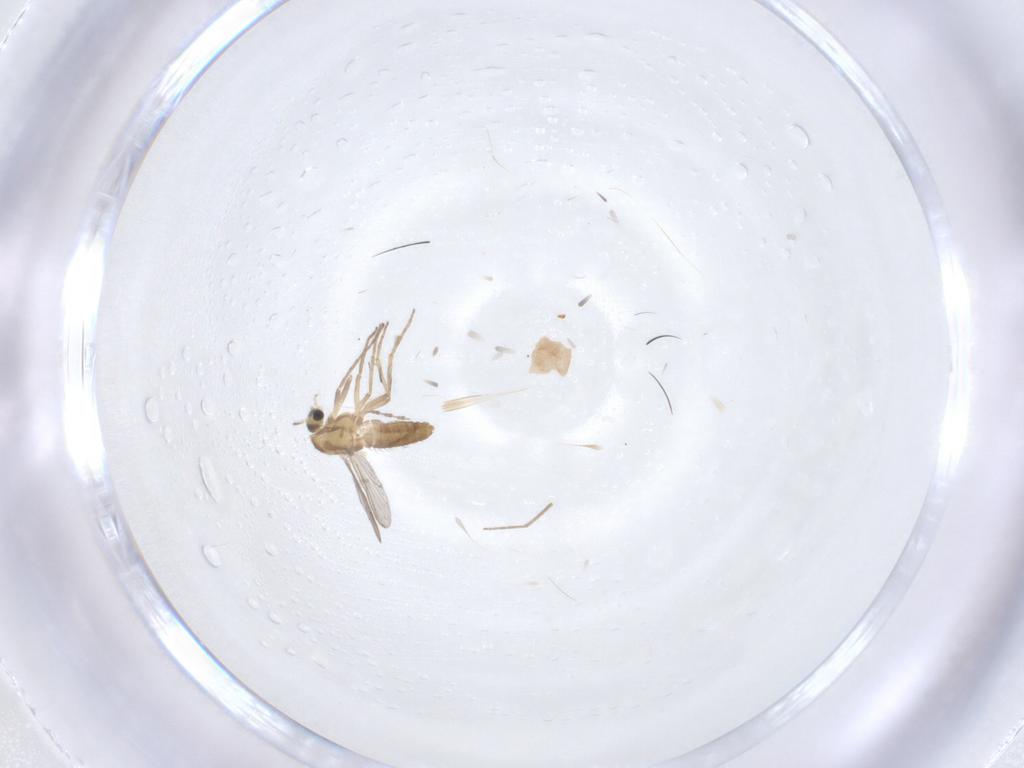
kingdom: Animalia
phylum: Arthropoda
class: Insecta
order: Diptera
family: Chironomidae
